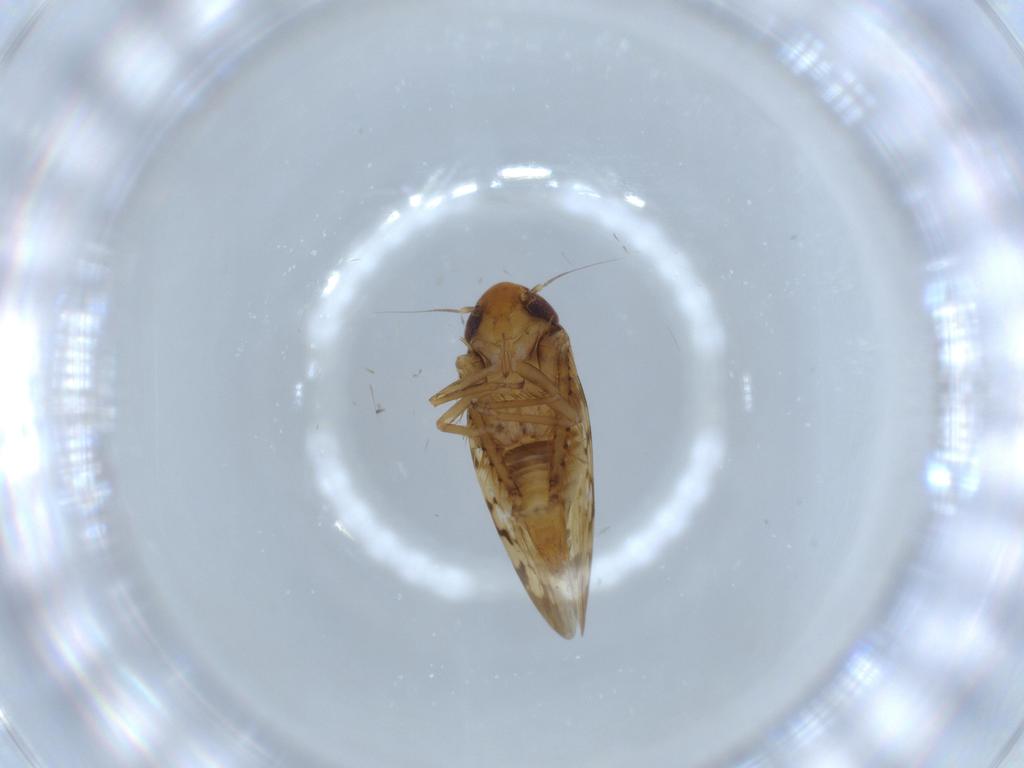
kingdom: Animalia
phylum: Arthropoda
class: Insecta
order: Hemiptera
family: Cicadellidae
